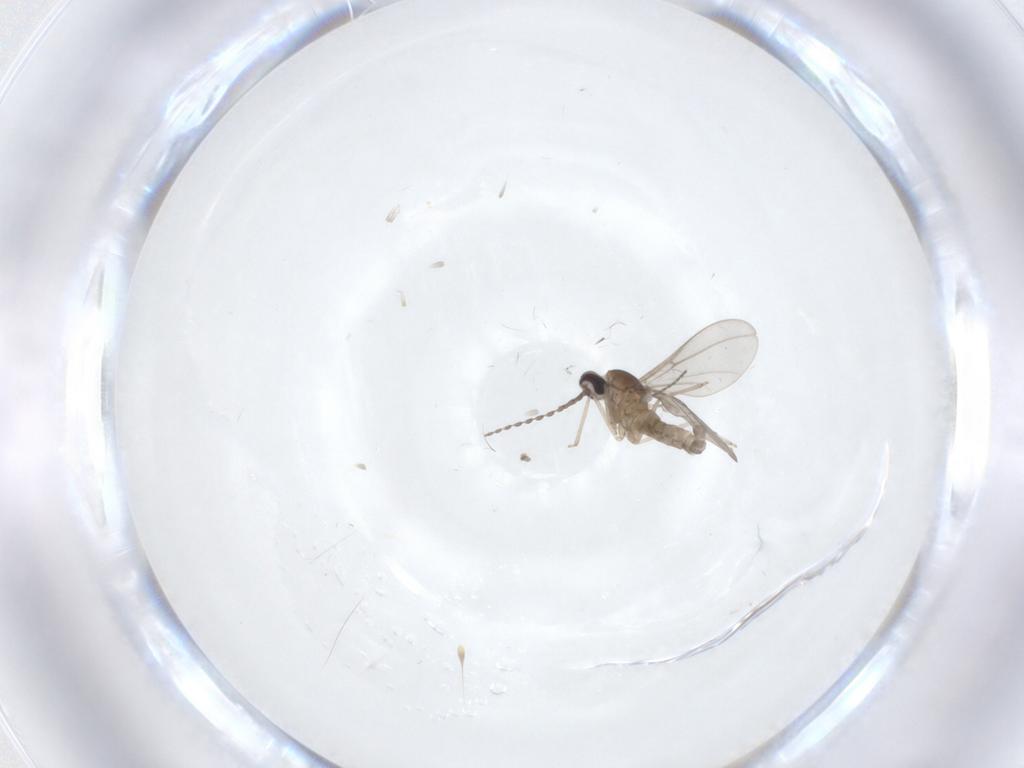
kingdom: Animalia
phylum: Arthropoda
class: Insecta
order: Diptera
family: Cecidomyiidae
